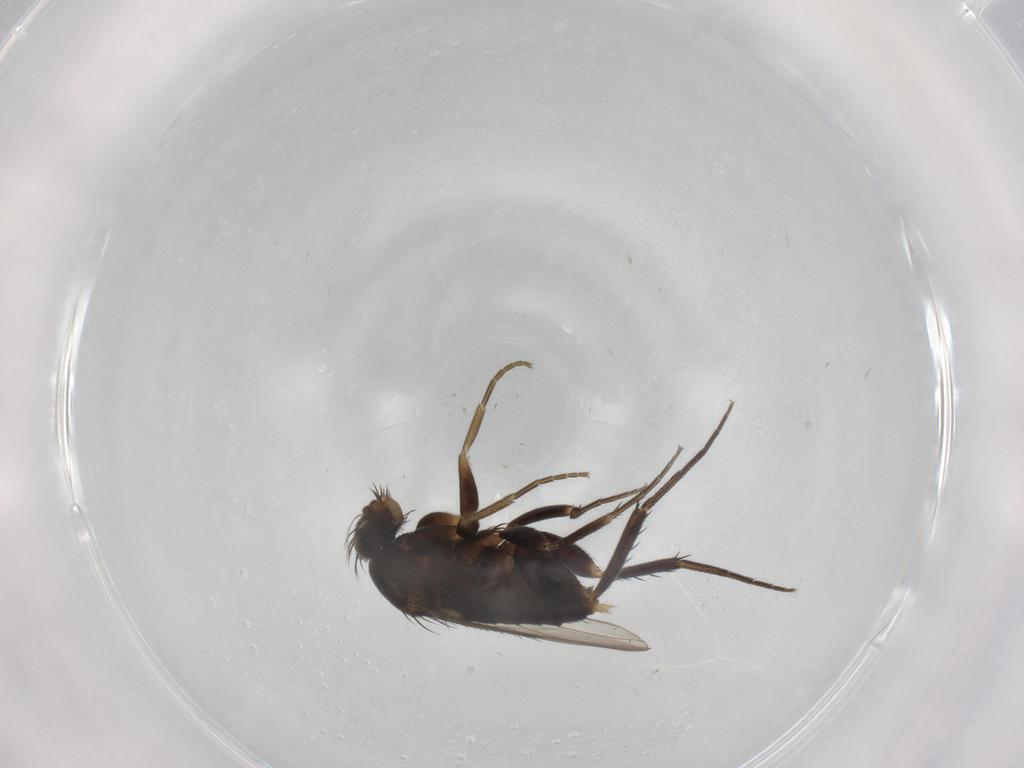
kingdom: Animalia
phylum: Arthropoda
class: Insecta
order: Diptera
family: Phoridae
